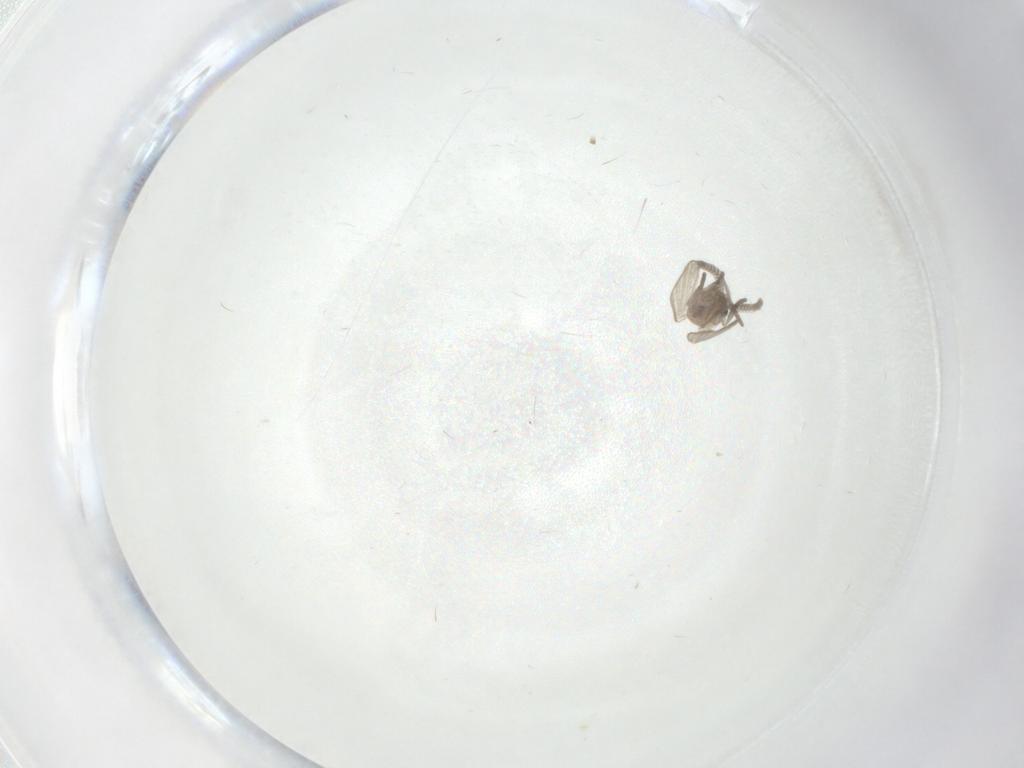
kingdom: Animalia
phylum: Arthropoda
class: Insecta
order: Diptera
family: Psychodidae
